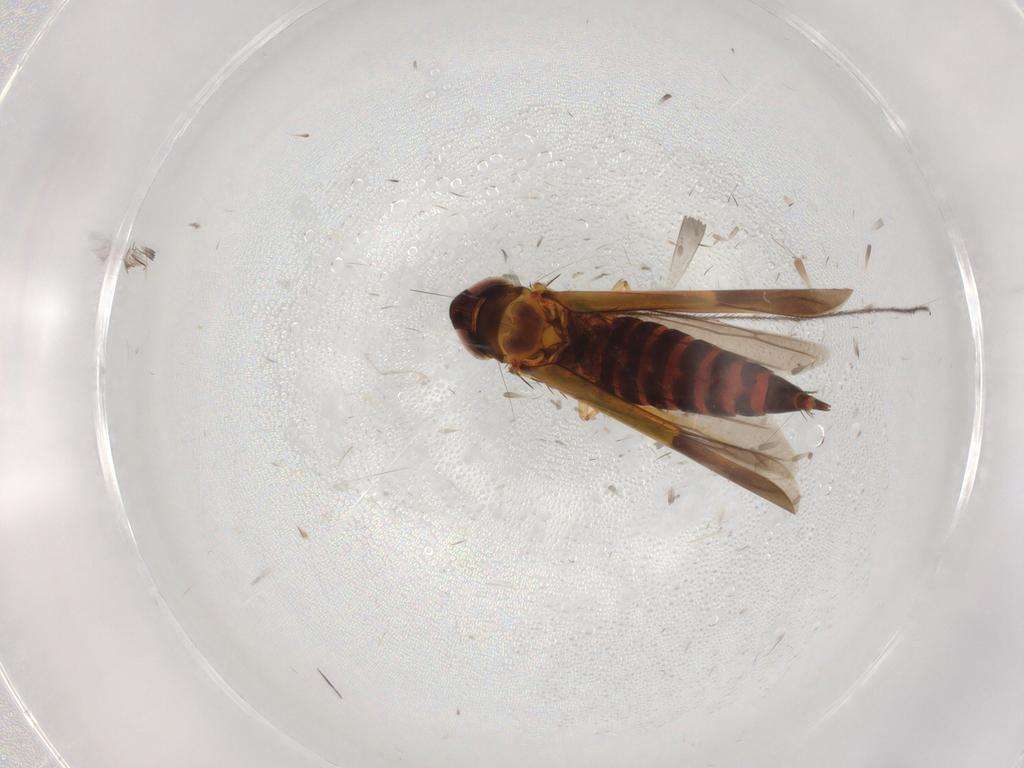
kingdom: Animalia
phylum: Arthropoda
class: Insecta
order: Hemiptera
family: Cicadellidae
